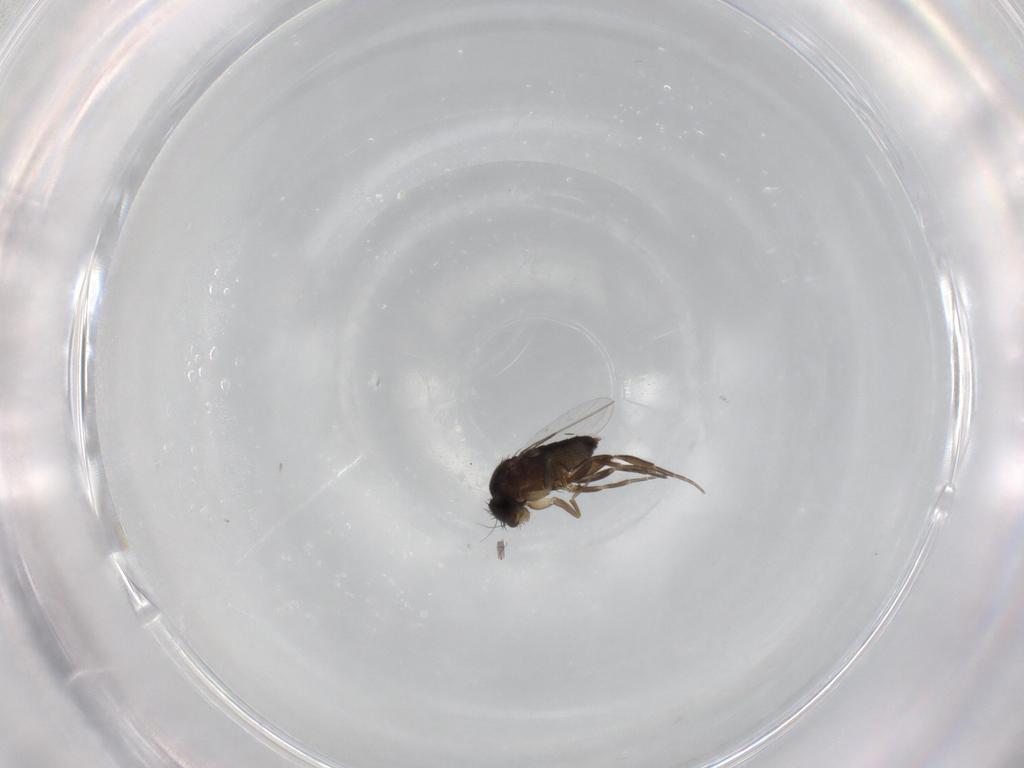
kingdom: Animalia
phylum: Arthropoda
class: Insecta
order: Diptera
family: Phoridae
